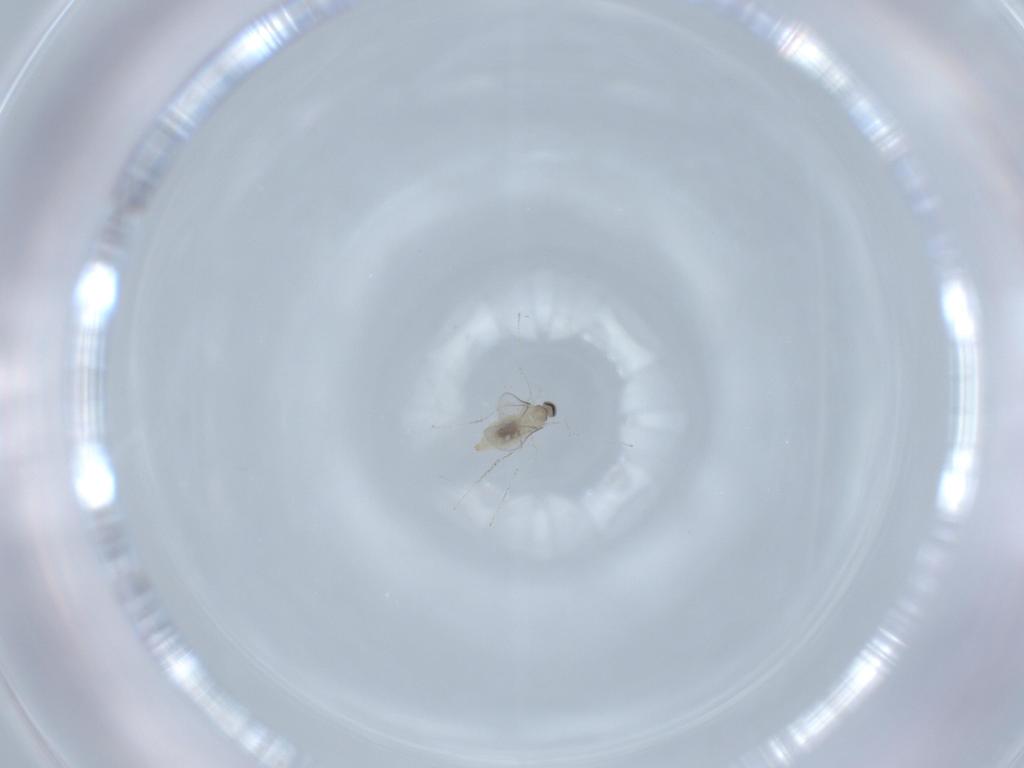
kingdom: Animalia
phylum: Arthropoda
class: Insecta
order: Diptera
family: Cecidomyiidae
